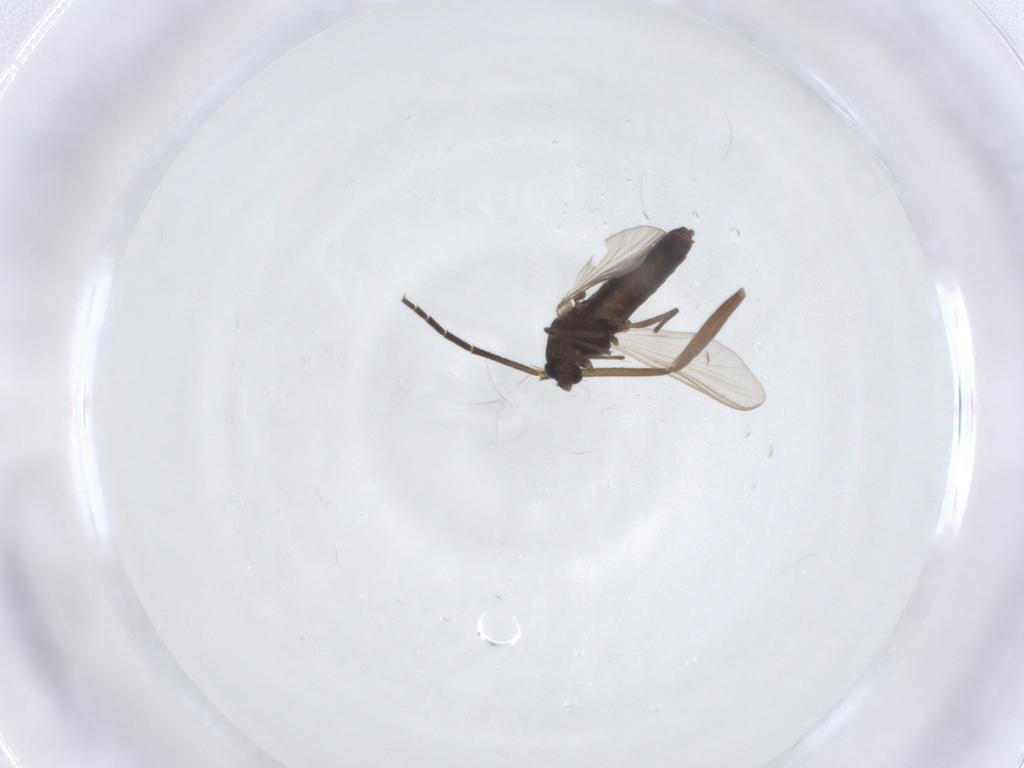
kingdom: Animalia
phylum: Arthropoda
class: Insecta
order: Diptera
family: Sciaridae
